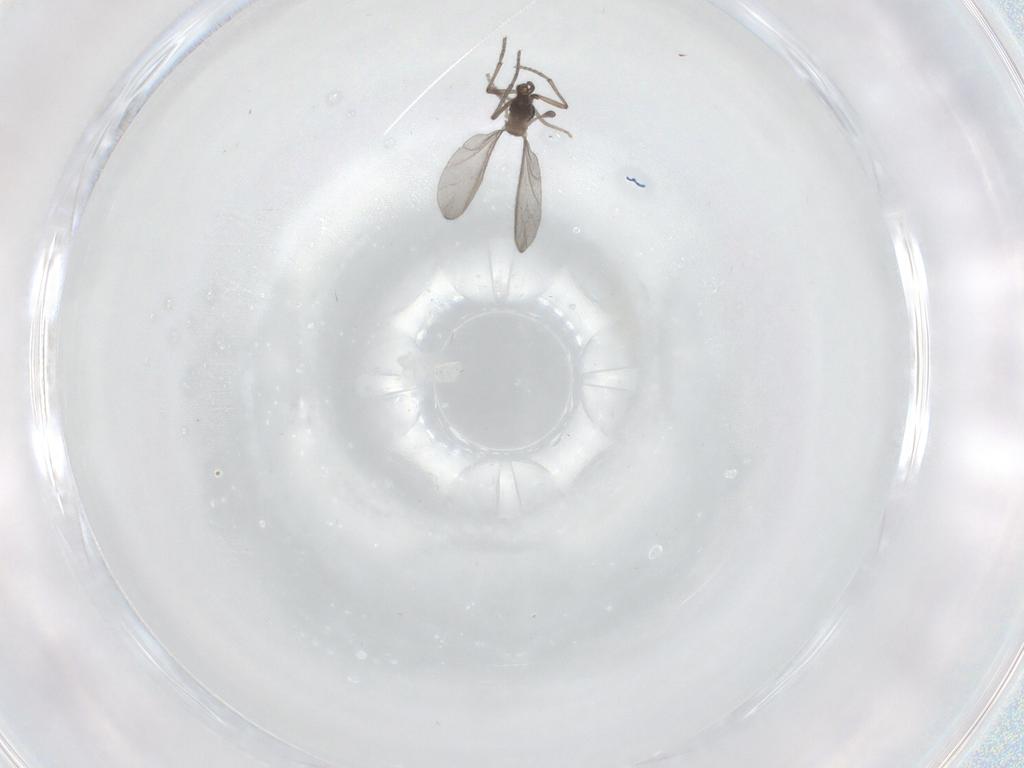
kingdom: Animalia
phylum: Arthropoda
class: Insecta
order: Diptera
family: Sciaridae
